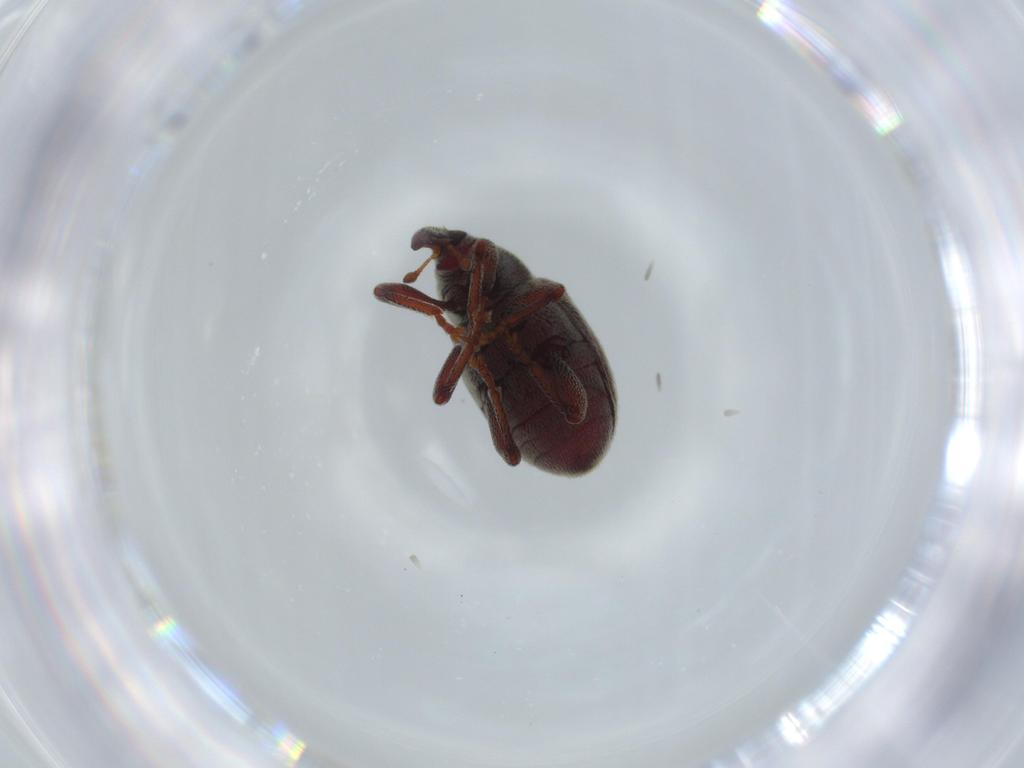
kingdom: Animalia
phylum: Arthropoda
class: Insecta
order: Coleoptera
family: Curculionidae
